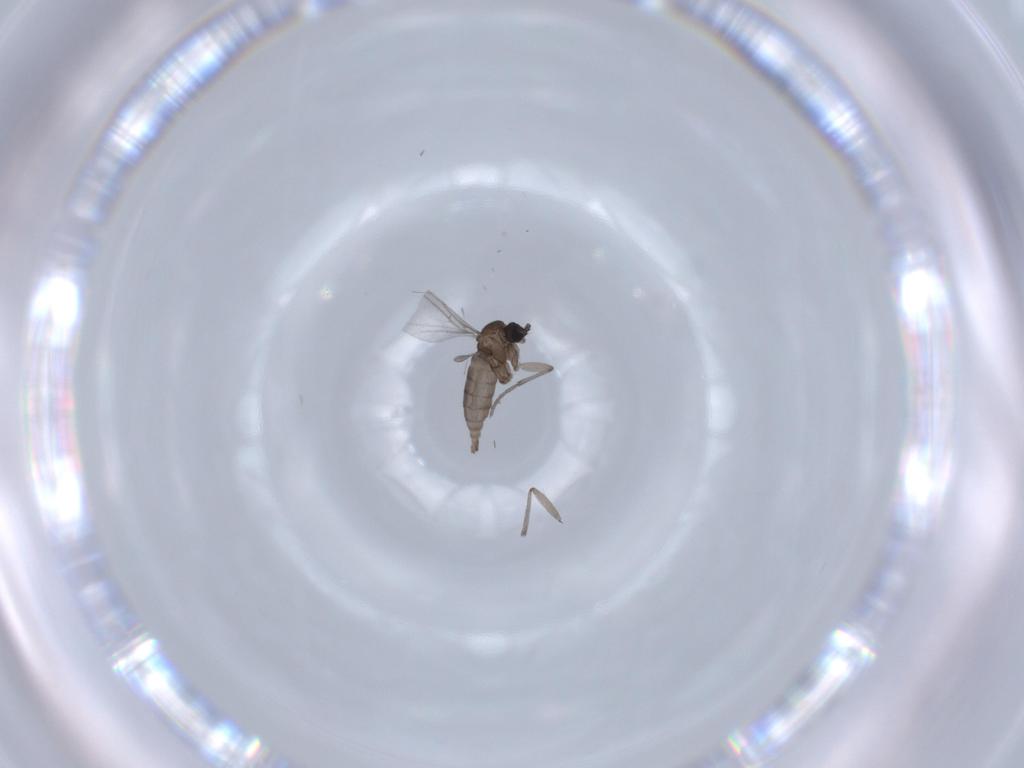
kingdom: Animalia
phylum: Arthropoda
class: Insecta
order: Diptera
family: Sciaridae
